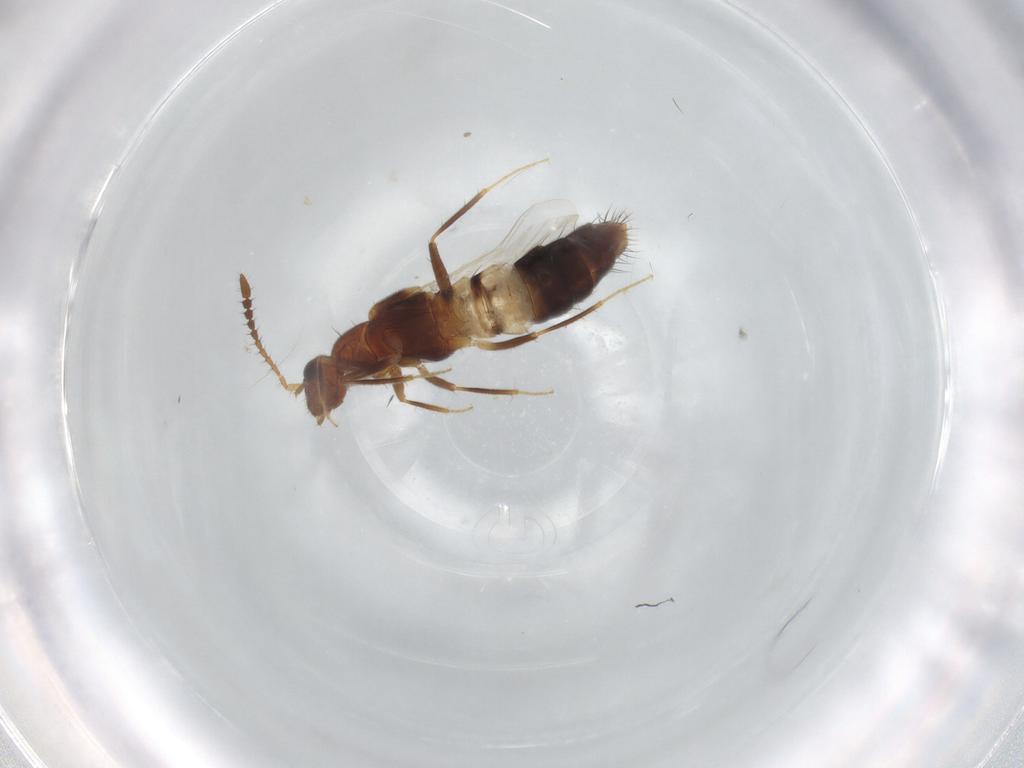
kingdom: Animalia
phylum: Arthropoda
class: Insecta
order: Coleoptera
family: Staphylinidae
